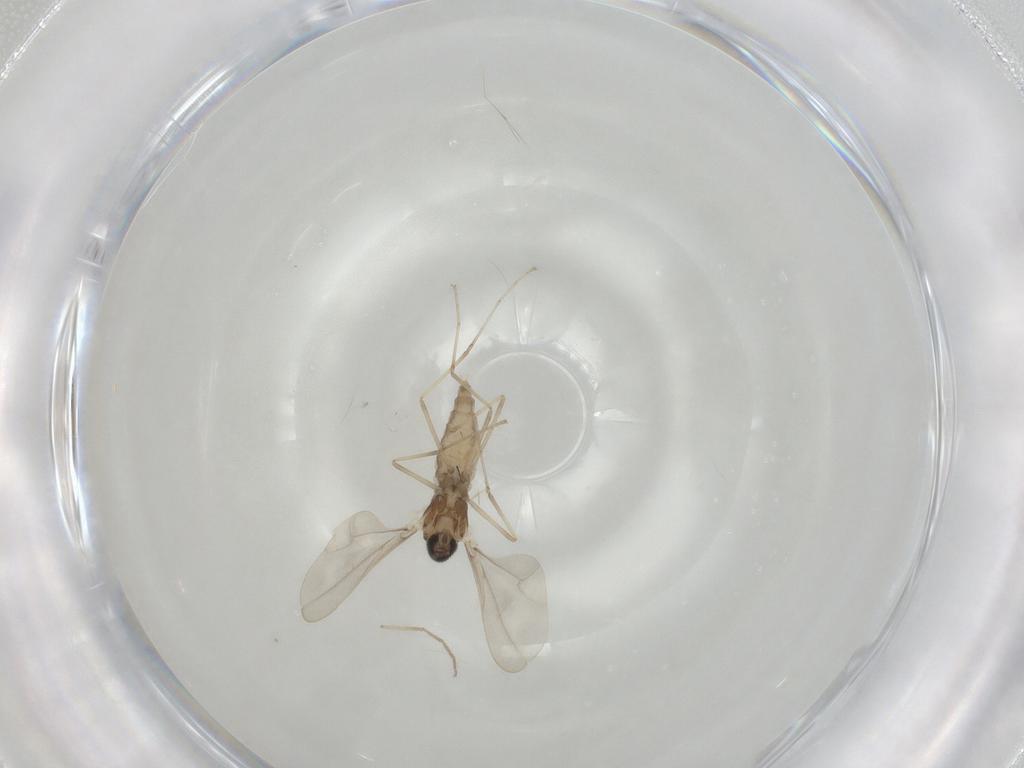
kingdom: Animalia
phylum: Arthropoda
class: Insecta
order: Diptera
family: Cecidomyiidae
